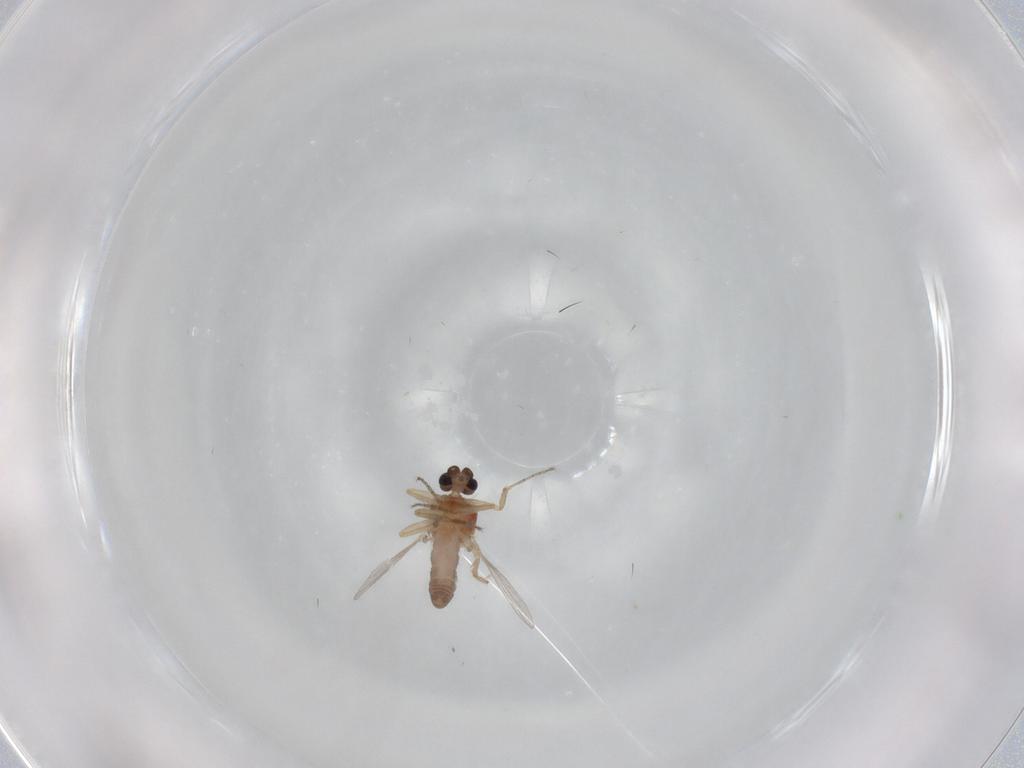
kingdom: Animalia
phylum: Arthropoda
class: Insecta
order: Diptera
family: Ceratopogonidae
